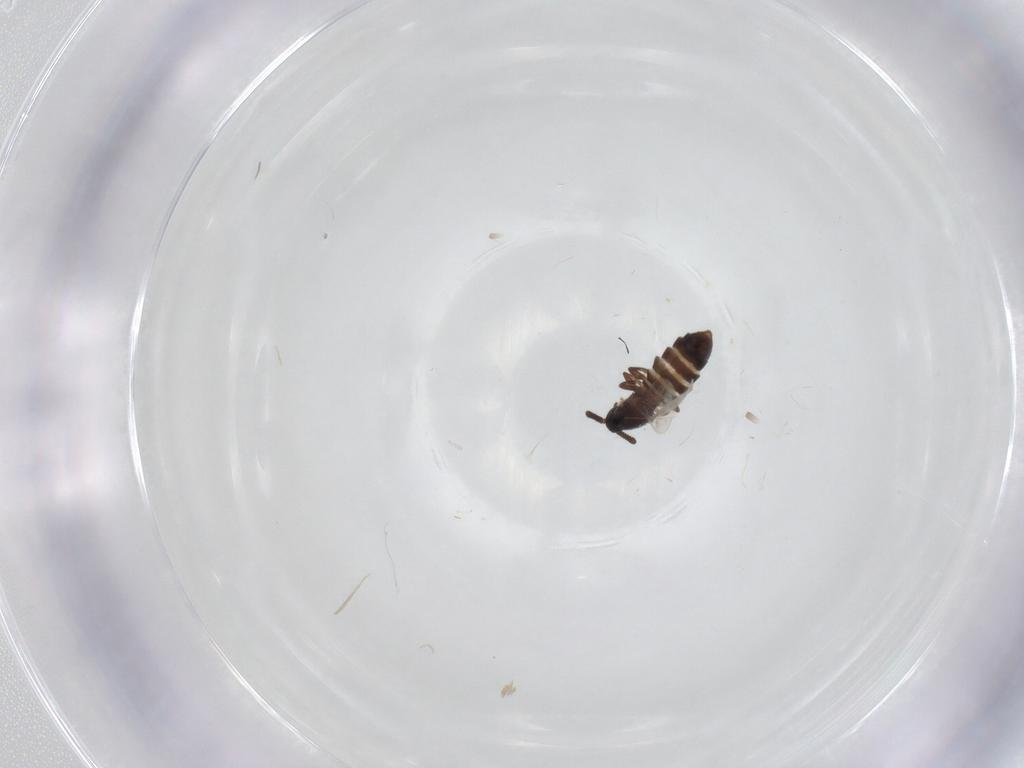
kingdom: Animalia
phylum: Arthropoda
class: Insecta
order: Diptera
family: Scatopsidae
